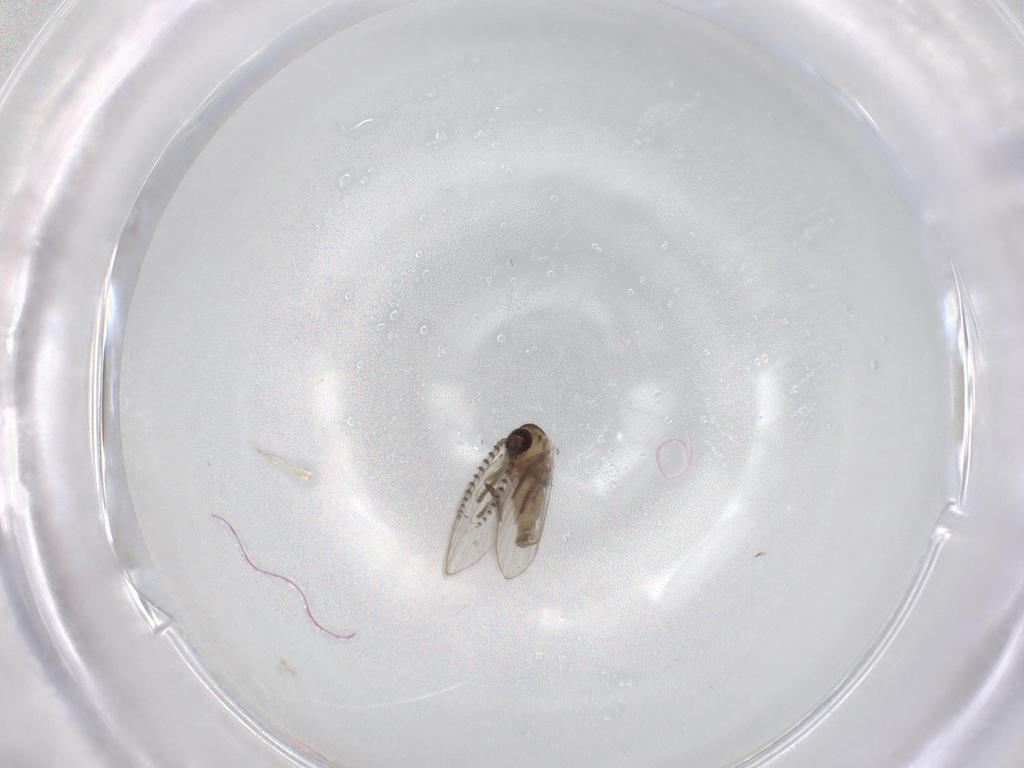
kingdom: Animalia
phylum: Arthropoda
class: Insecta
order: Diptera
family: Psychodidae
